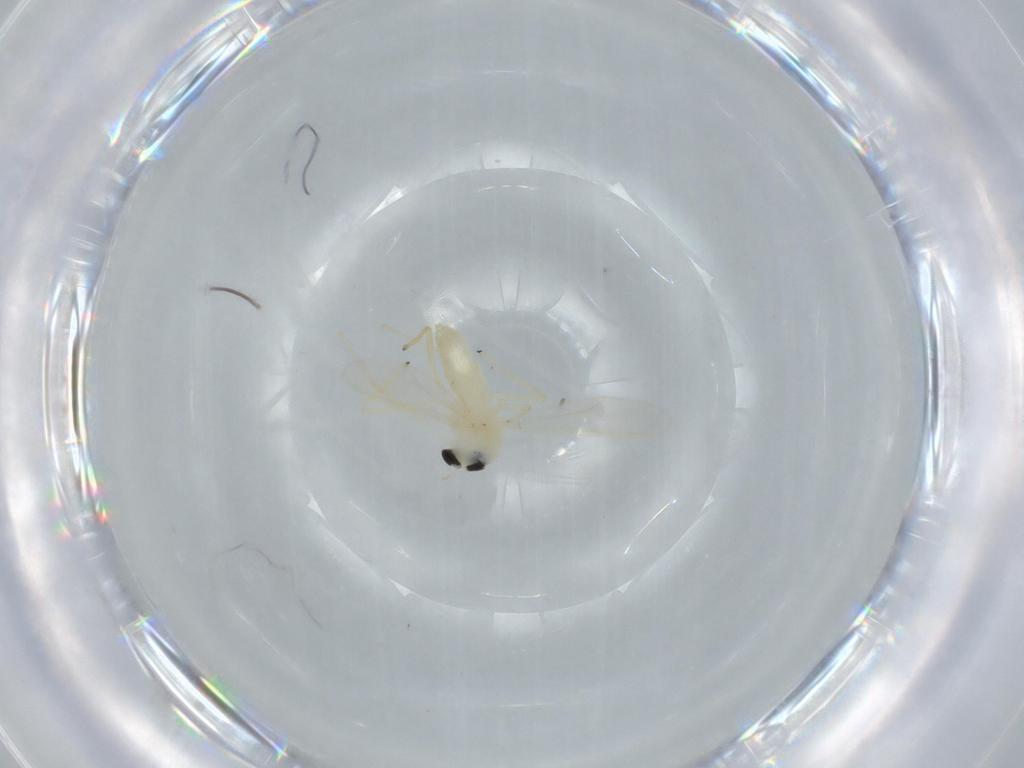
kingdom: Animalia
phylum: Arthropoda
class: Insecta
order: Diptera
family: Chironomidae
